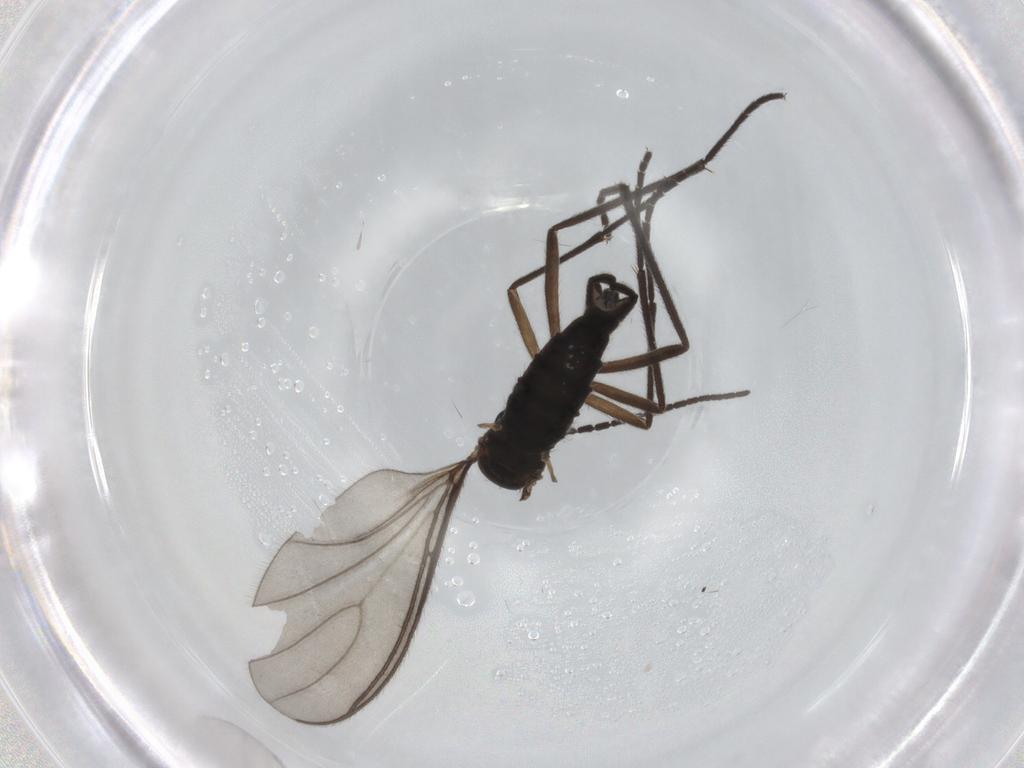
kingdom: Animalia
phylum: Arthropoda
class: Insecta
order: Diptera
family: Sciaridae
